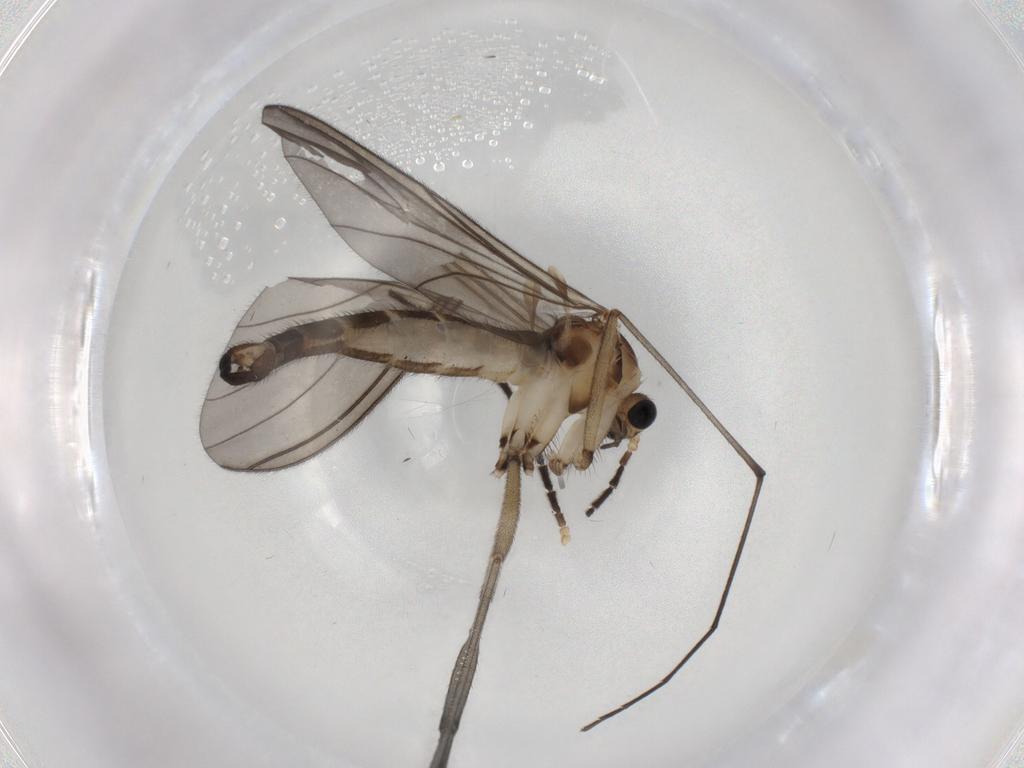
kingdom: Animalia
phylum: Arthropoda
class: Insecta
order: Diptera
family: Sciaridae
